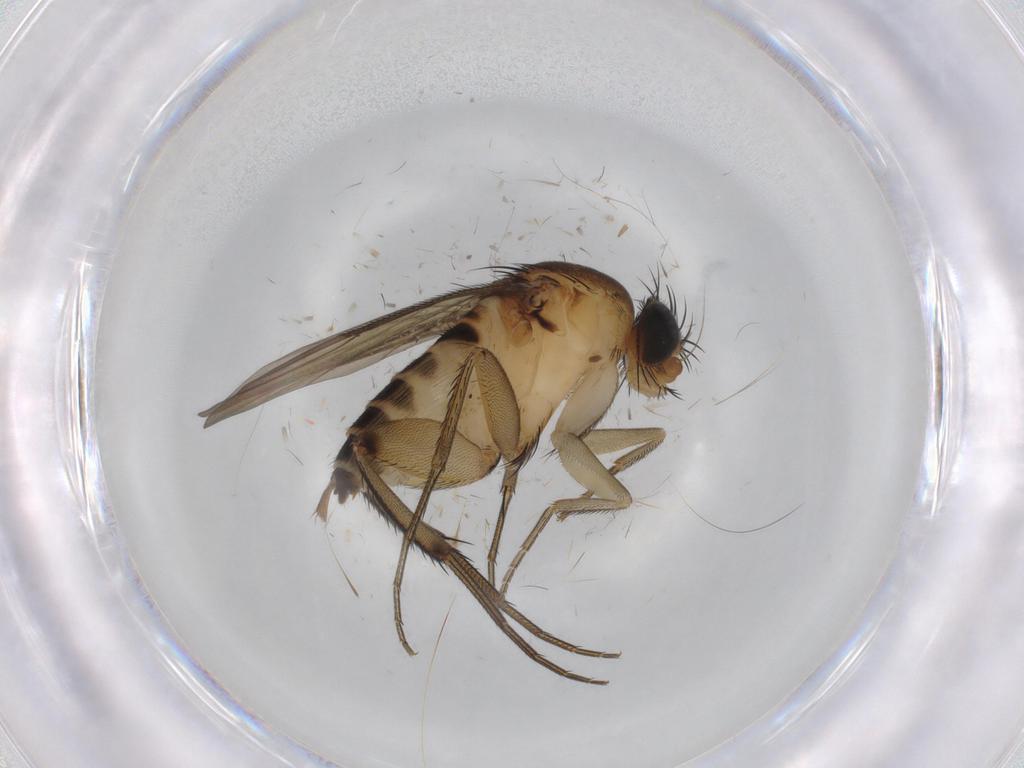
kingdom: Animalia
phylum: Arthropoda
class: Insecta
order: Diptera
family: Phoridae
